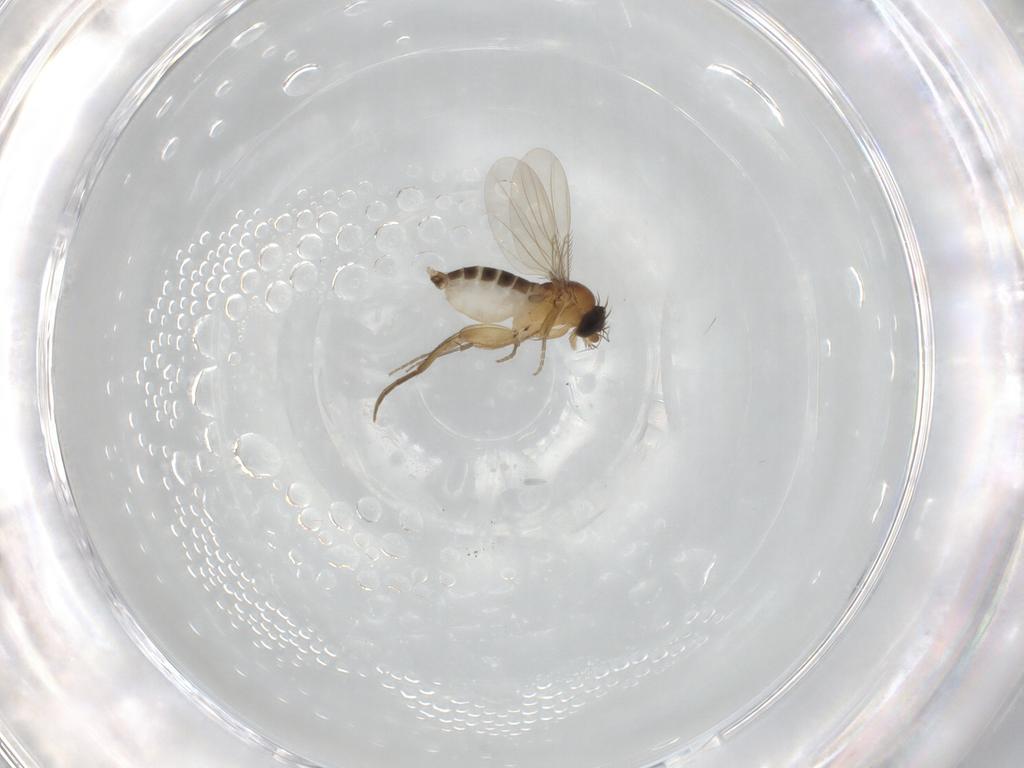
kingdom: Animalia
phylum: Arthropoda
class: Insecta
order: Diptera
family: Phoridae
